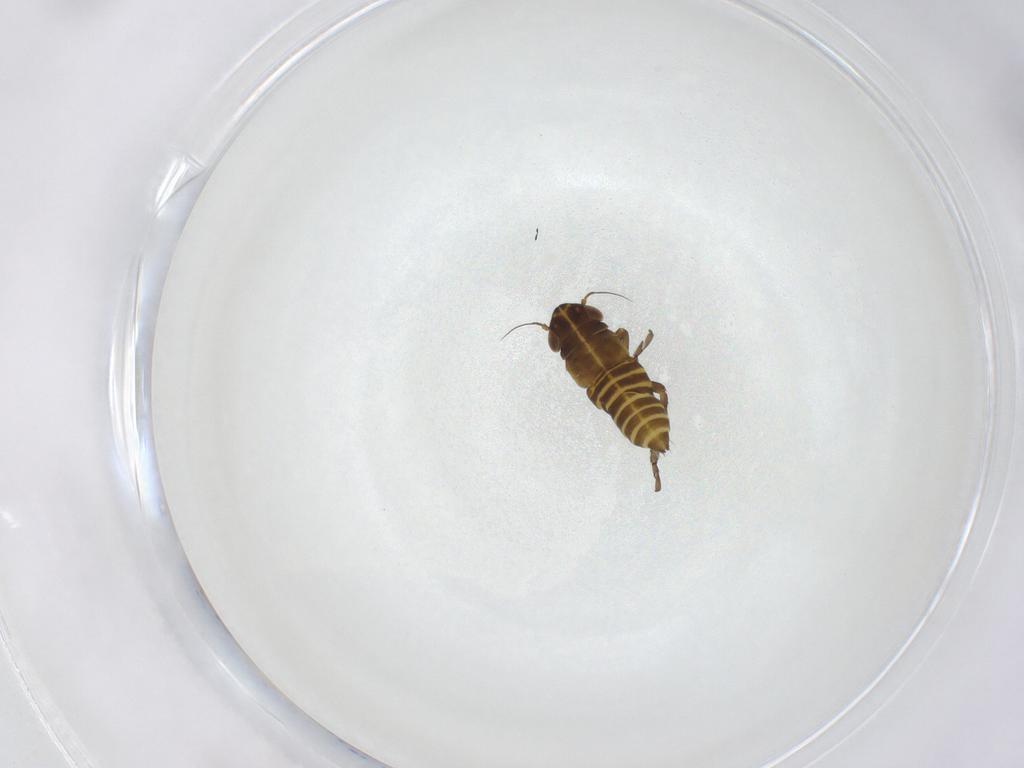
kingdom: Animalia
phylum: Arthropoda
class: Insecta
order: Hemiptera
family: Cicadellidae
